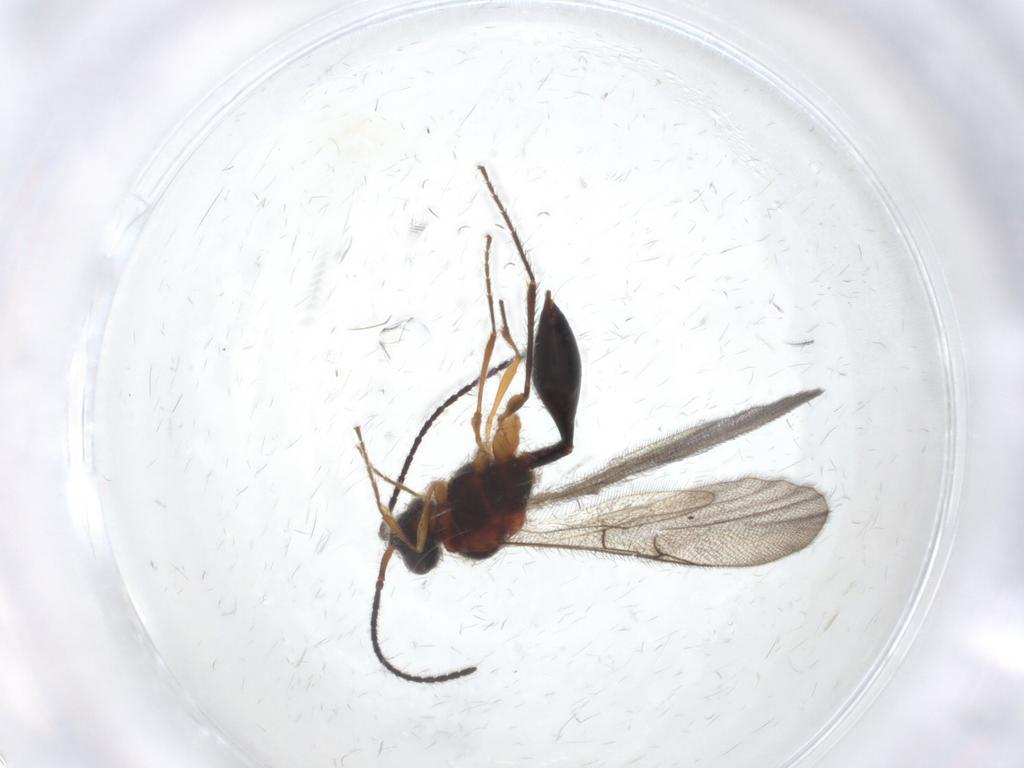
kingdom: Animalia
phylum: Arthropoda
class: Insecta
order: Hymenoptera
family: Diapriidae
